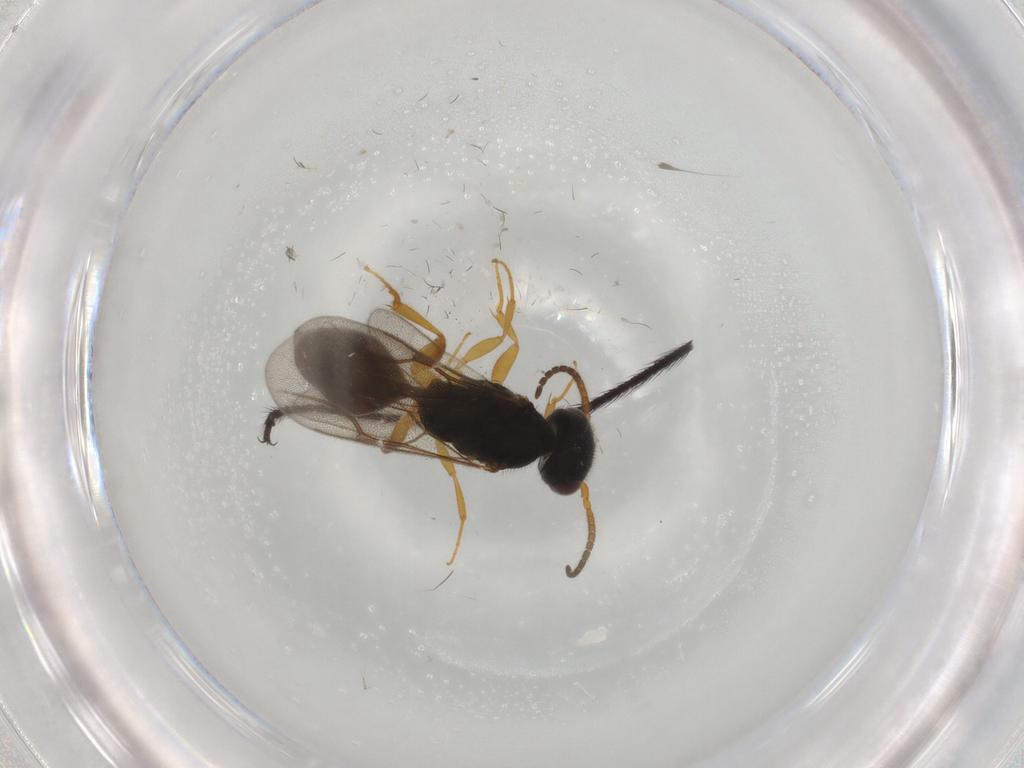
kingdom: Animalia
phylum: Arthropoda
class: Insecta
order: Hymenoptera
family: Bethylidae
